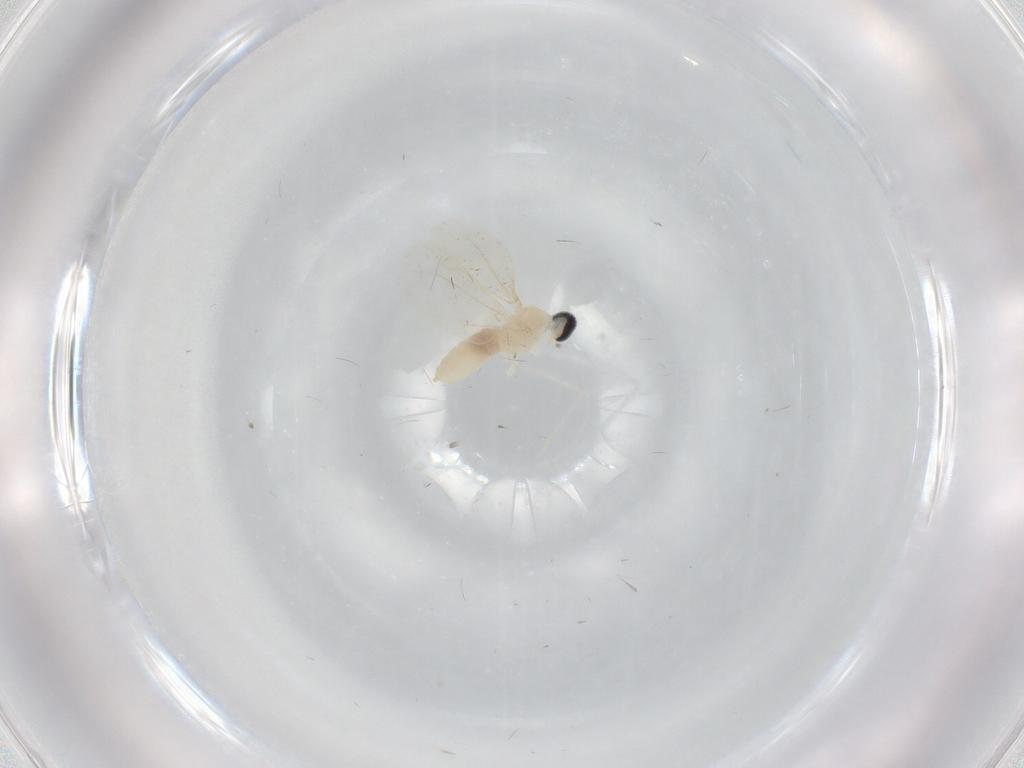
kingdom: Animalia
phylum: Arthropoda
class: Insecta
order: Diptera
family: Cecidomyiidae
